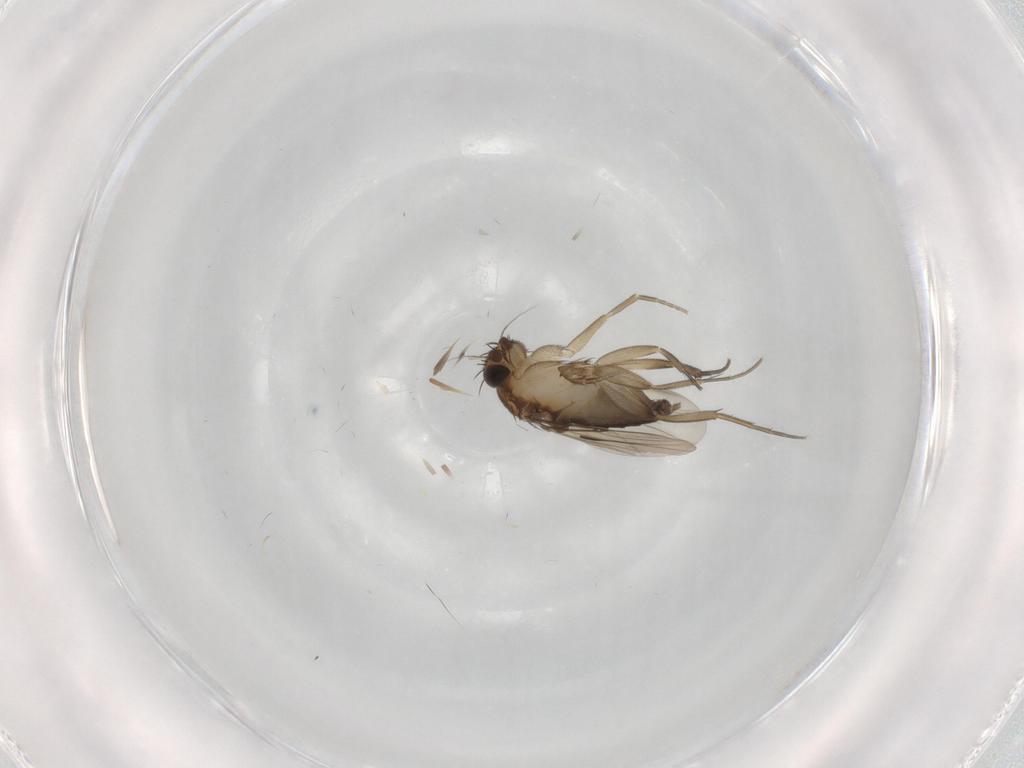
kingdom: Animalia
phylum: Arthropoda
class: Insecta
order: Diptera
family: Phoridae
